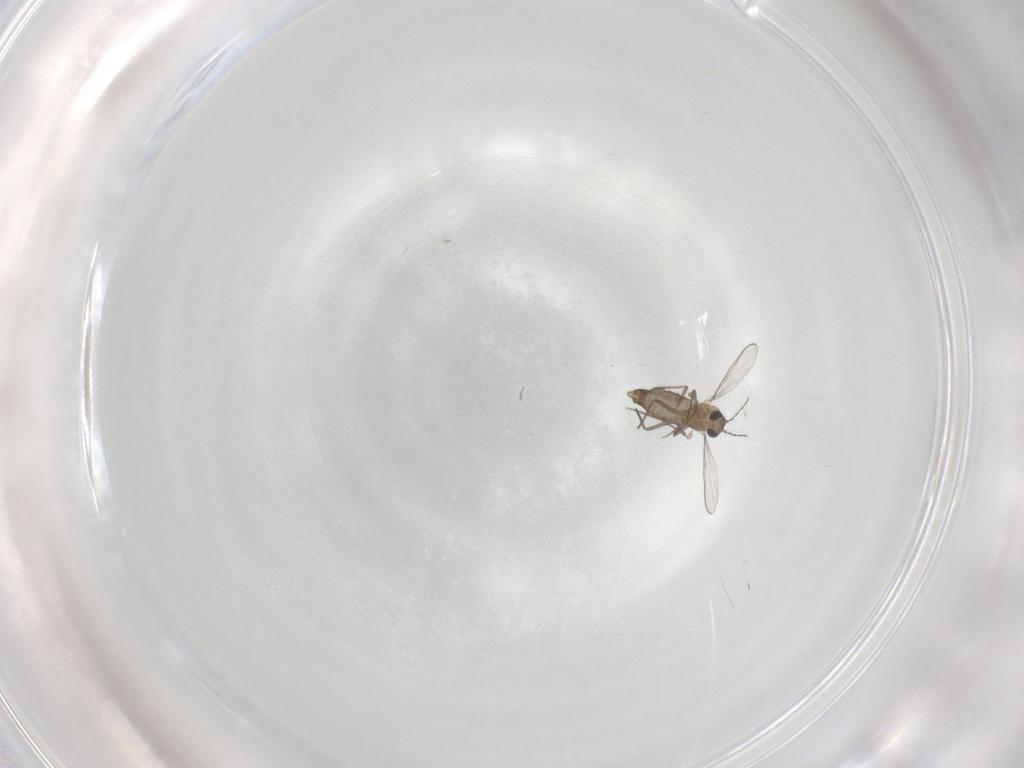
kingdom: Animalia
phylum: Arthropoda
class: Insecta
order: Diptera
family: Chironomidae
